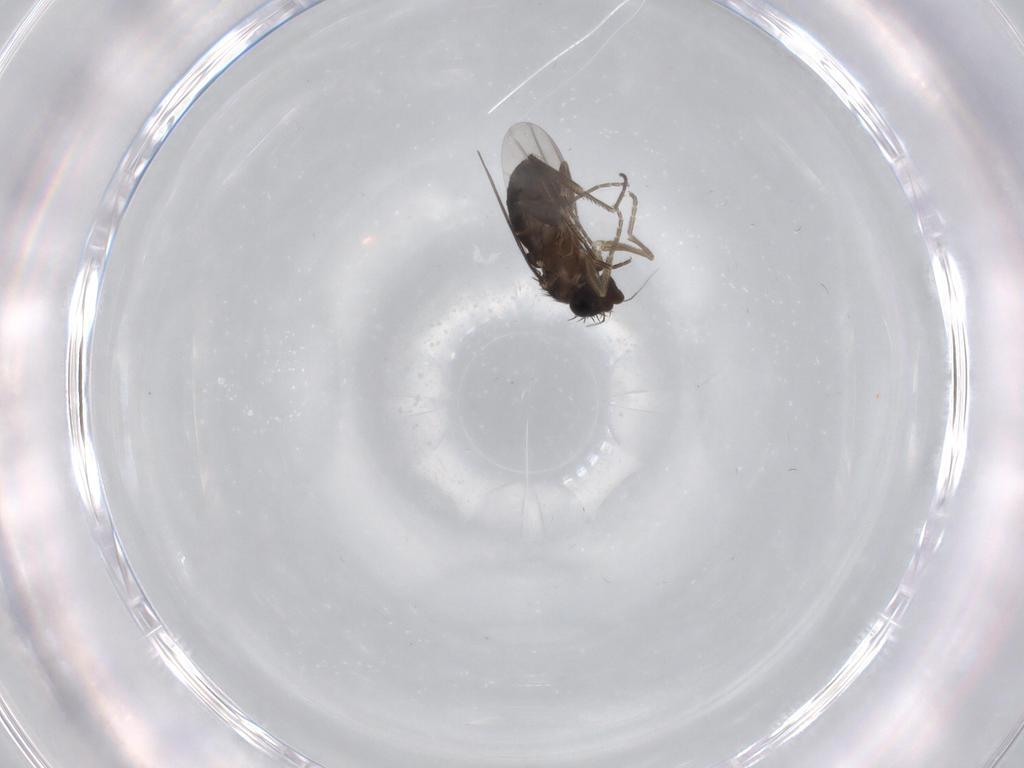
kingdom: Animalia
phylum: Arthropoda
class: Insecta
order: Diptera
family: Phoridae
